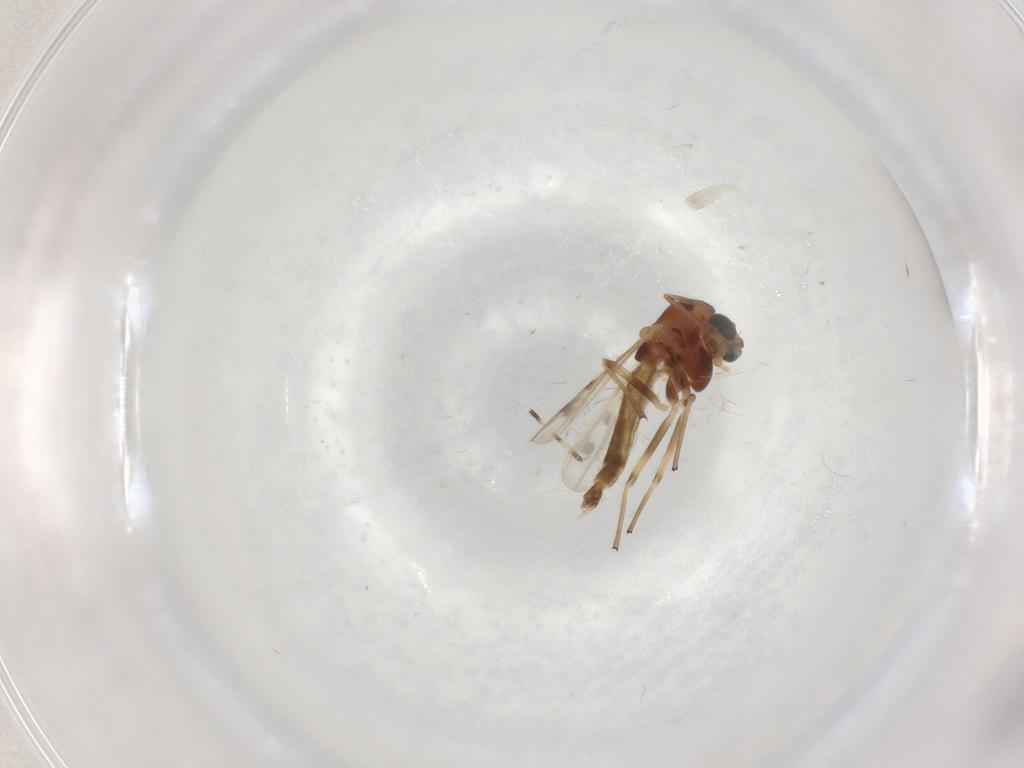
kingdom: Animalia
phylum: Arthropoda
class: Insecta
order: Diptera
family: Chironomidae
